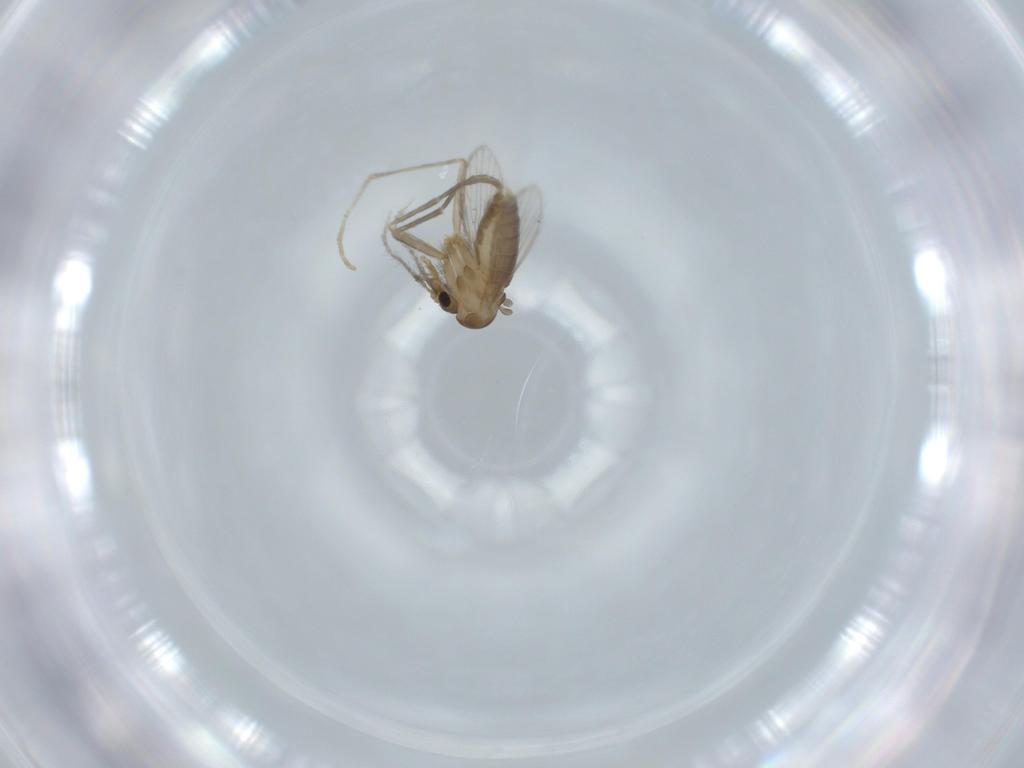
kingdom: Animalia
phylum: Arthropoda
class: Insecta
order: Diptera
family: Psychodidae
